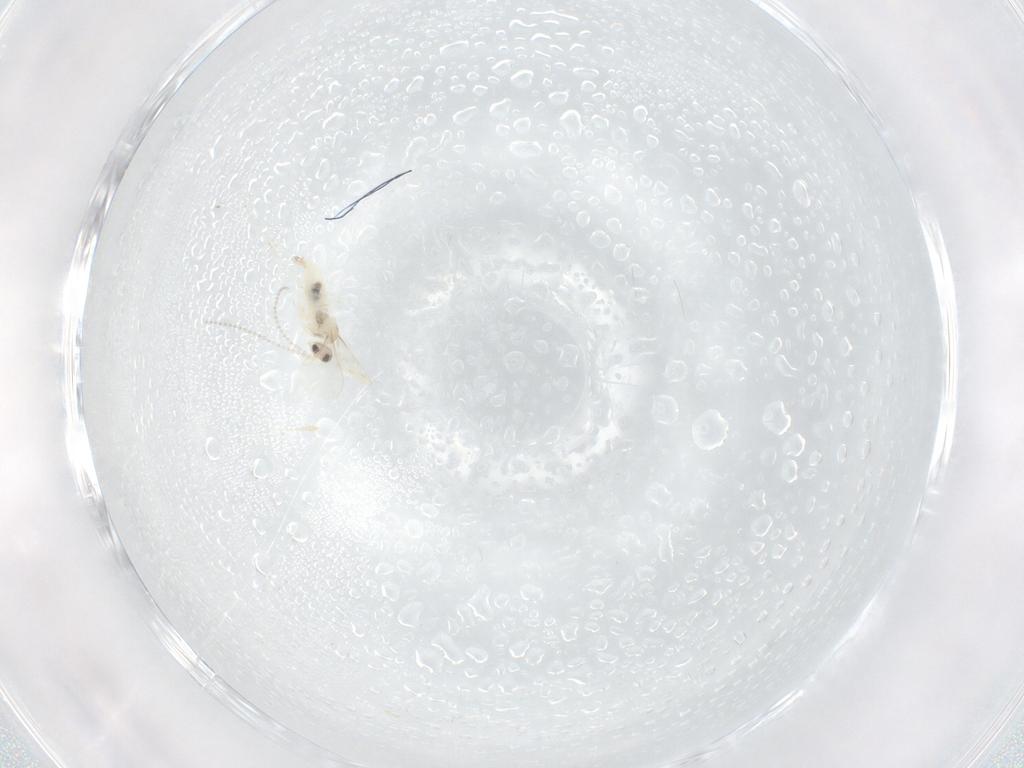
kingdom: Animalia
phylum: Arthropoda
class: Insecta
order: Diptera
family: Cecidomyiidae
